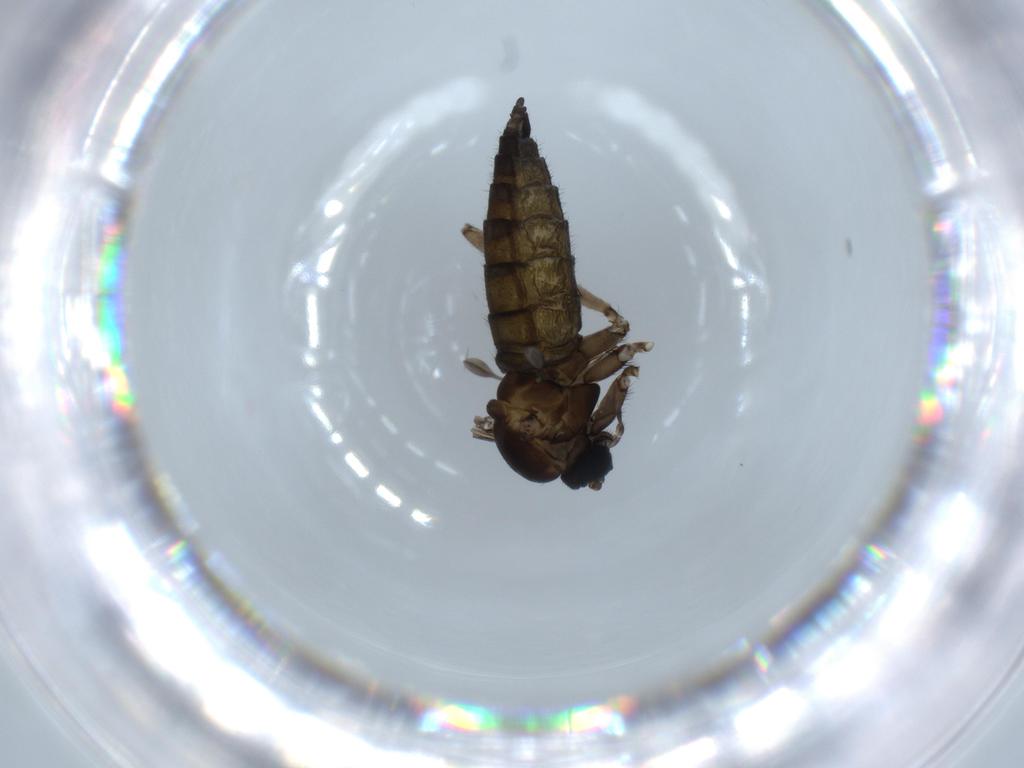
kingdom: Animalia
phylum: Arthropoda
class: Insecta
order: Diptera
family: Sciaridae
